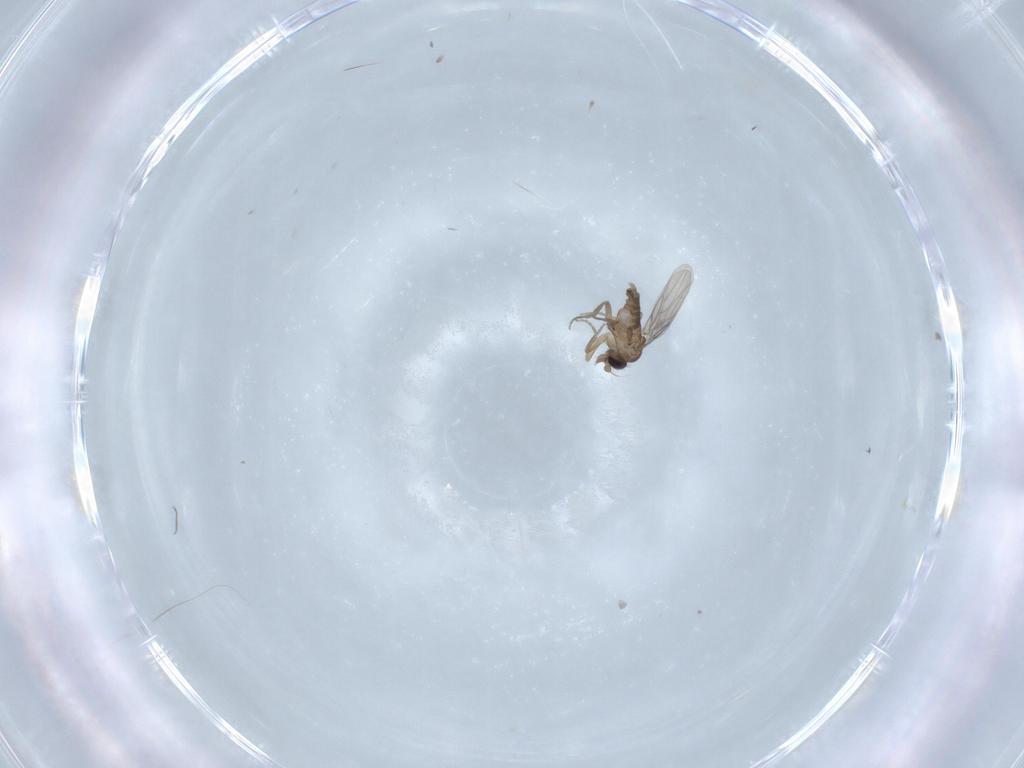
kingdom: Animalia
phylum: Arthropoda
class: Insecta
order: Diptera
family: Phoridae
